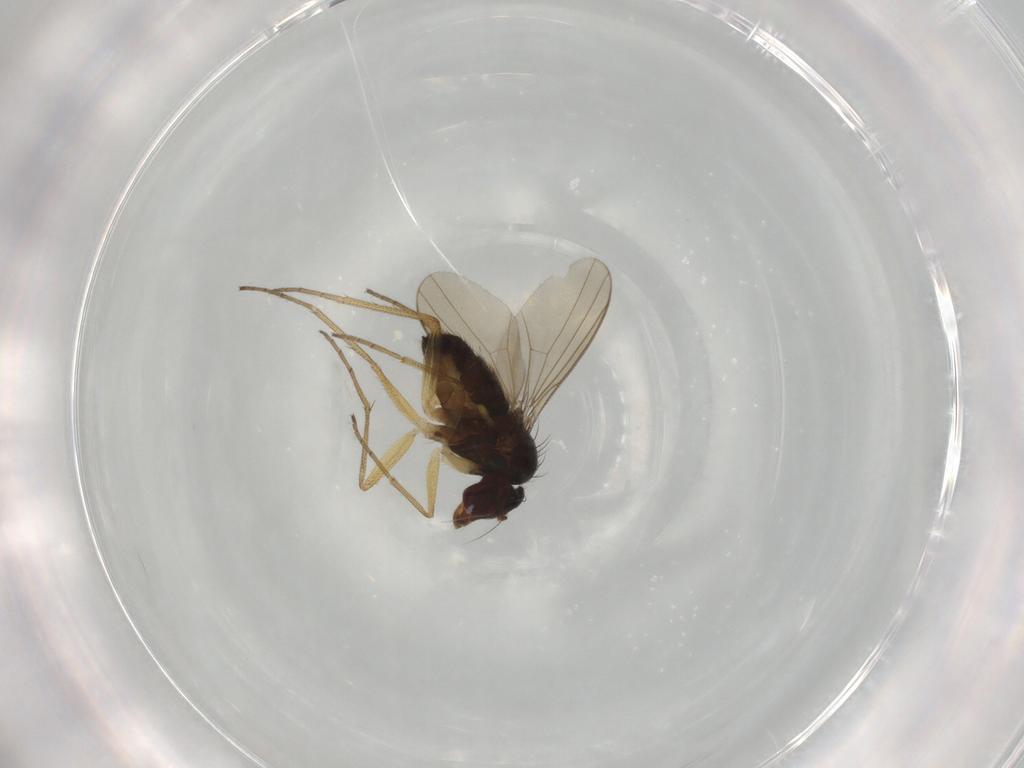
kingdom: Animalia
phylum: Arthropoda
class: Insecta
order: Diptera
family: Dolichopodidae
